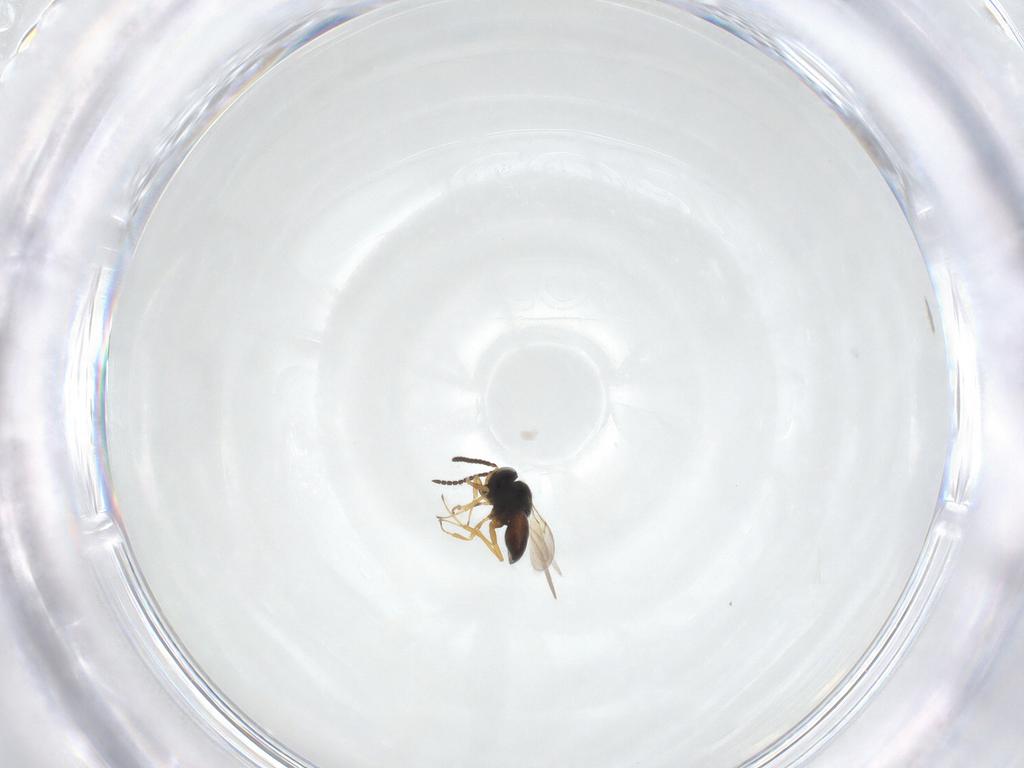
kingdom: Animalia
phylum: Arthropoda
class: Insecta
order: Hymenoptera
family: Scelionidae
